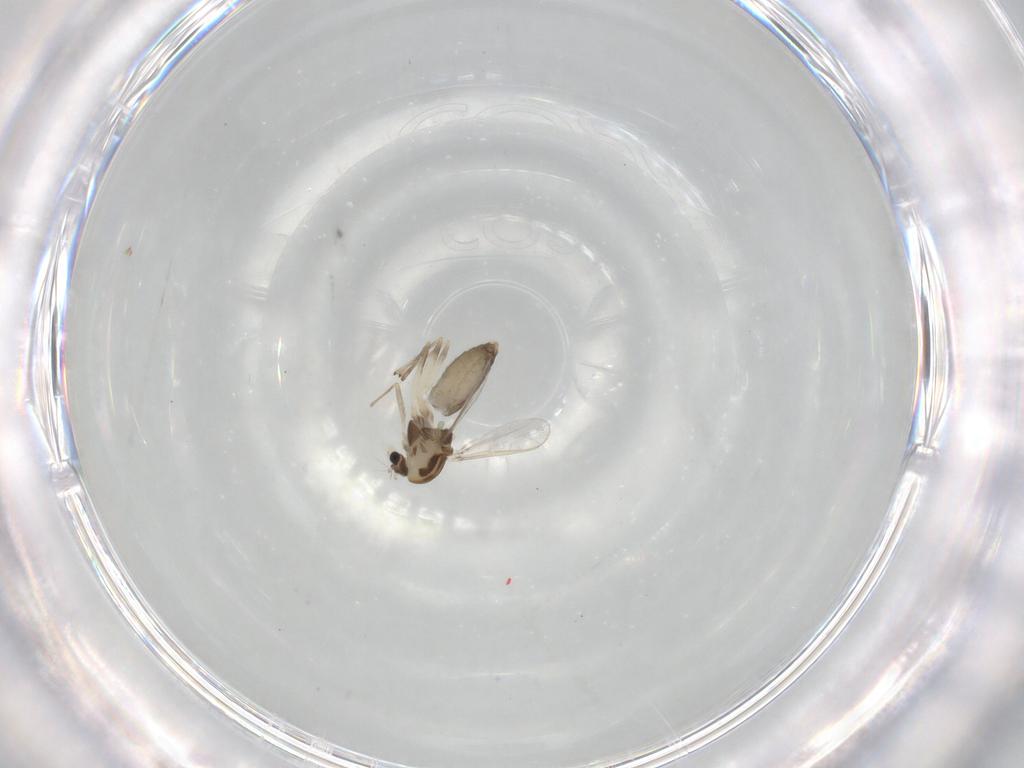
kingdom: Animalia
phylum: Arthropoda
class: Insecta
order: Diptera
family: Chironomidae
